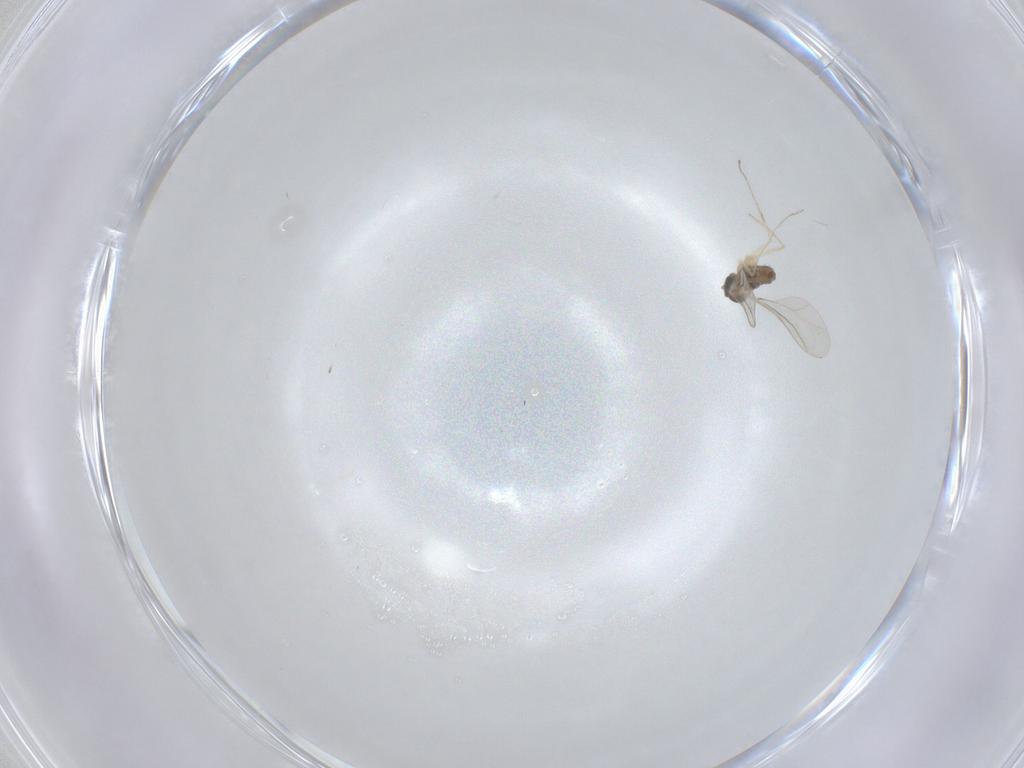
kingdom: Animalia
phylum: Arthropoda
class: Insecta
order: Diptera
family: Cecidomyiidae
